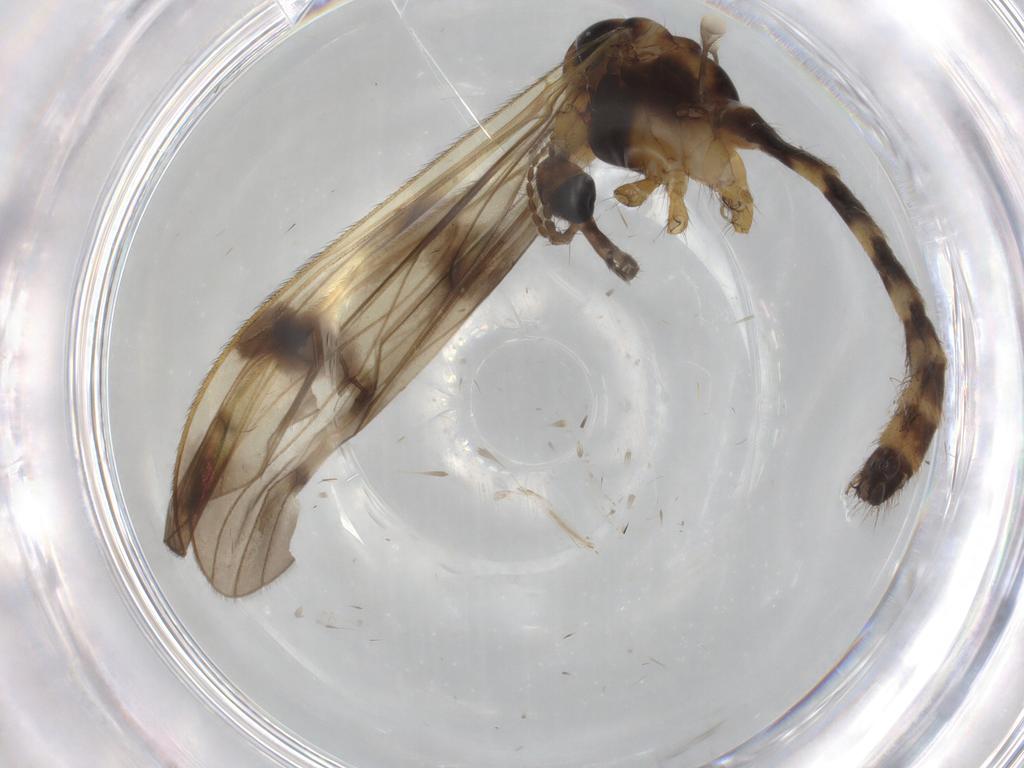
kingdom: Animalia
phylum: Arthropoda
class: Insecta
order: Diptera
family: Limoniidae
